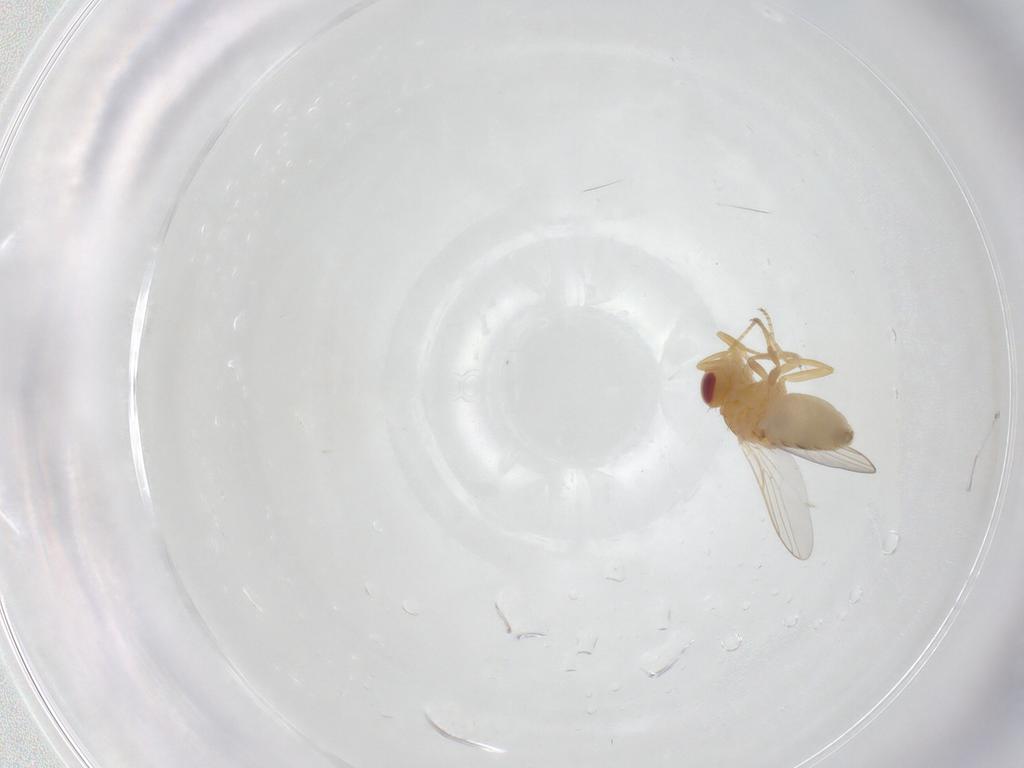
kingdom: Animalia
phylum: Arthropoda
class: Insecta
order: Diptera
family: Chloropidae
